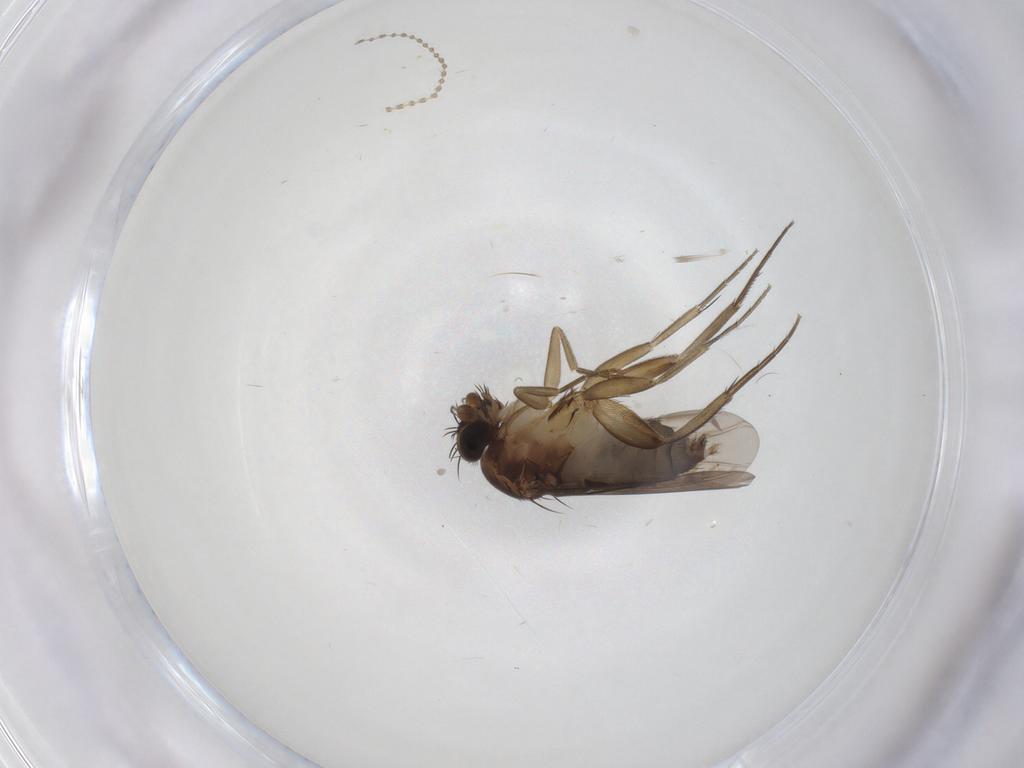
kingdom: Animalia
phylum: Arthropoda
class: Insecta
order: Diptera
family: Phoridae
